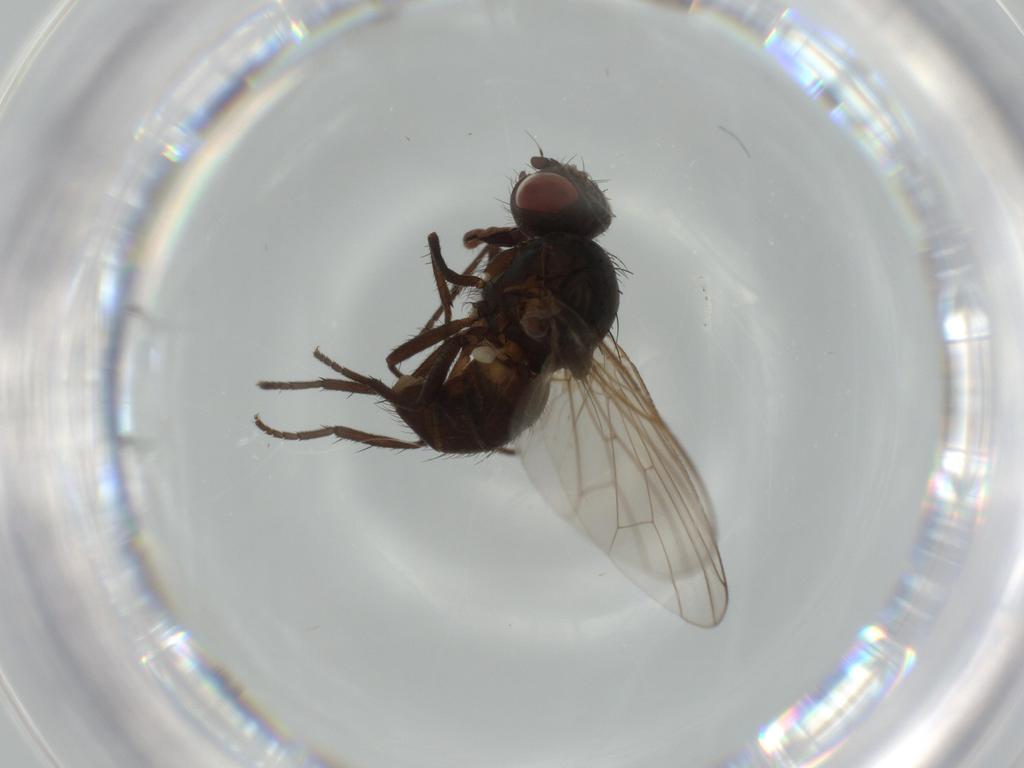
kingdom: Animalia
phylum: Arthropoda
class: Insecta
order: Diptera
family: Anthomyiidae
